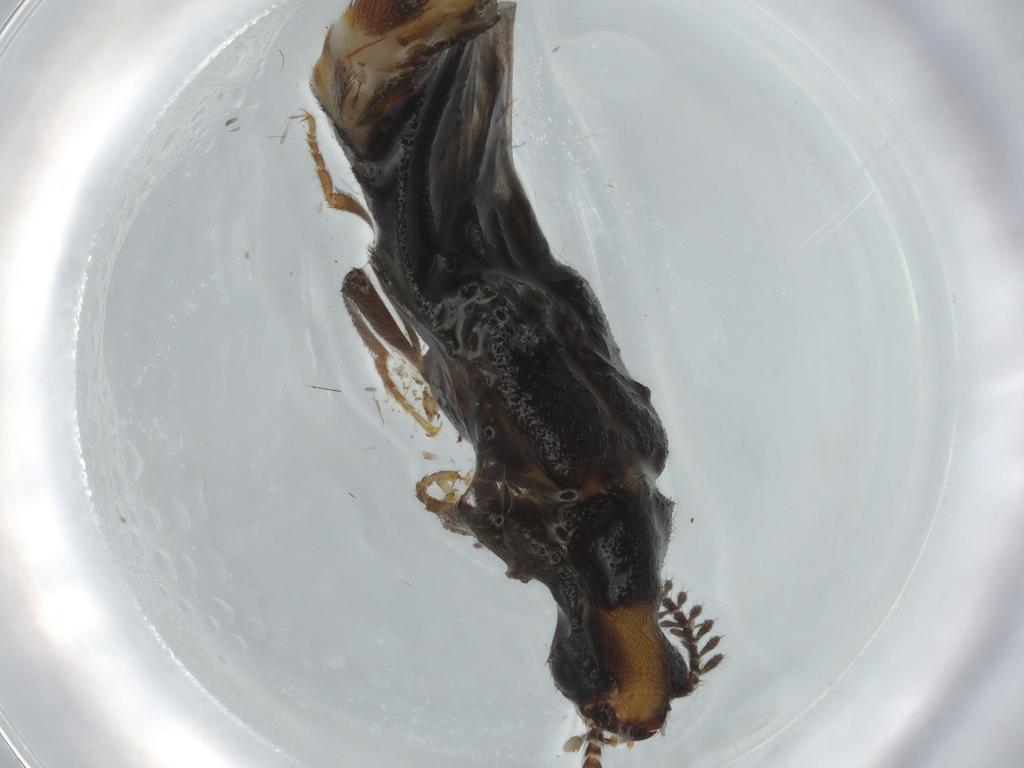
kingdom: Animalia
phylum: Arthropoda
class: Insecta
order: Coleoptera
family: Phengodidae
